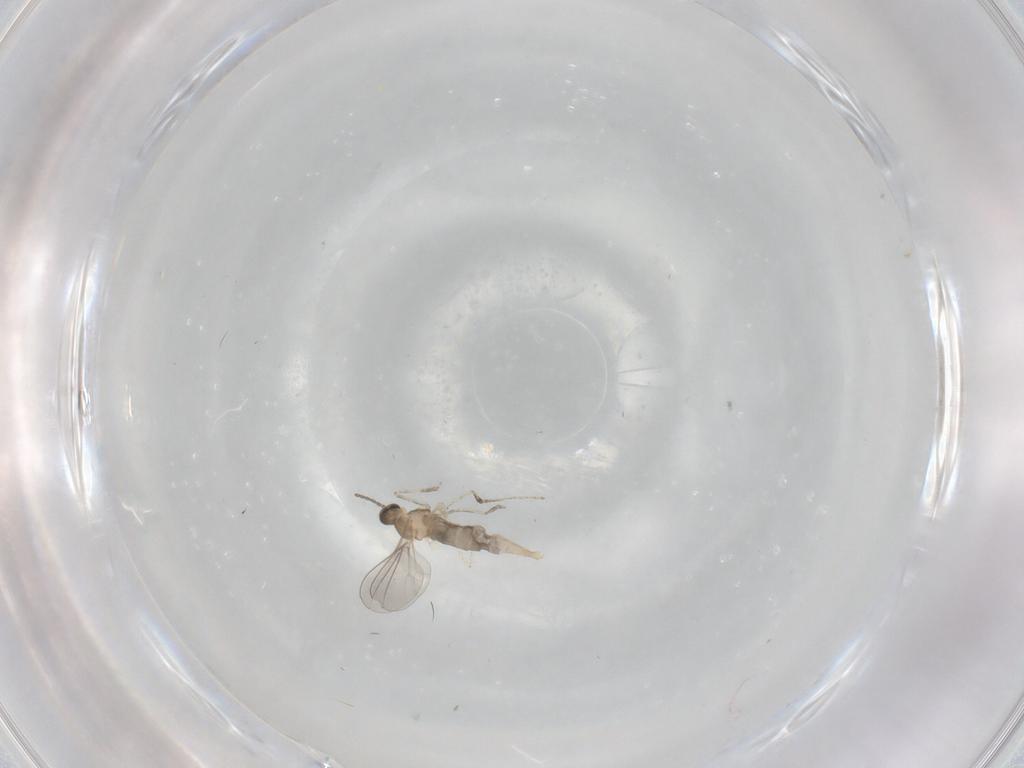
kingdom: Animalia
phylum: Arthropoda
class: Insecta
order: Diptera
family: Cecidomyiidae
